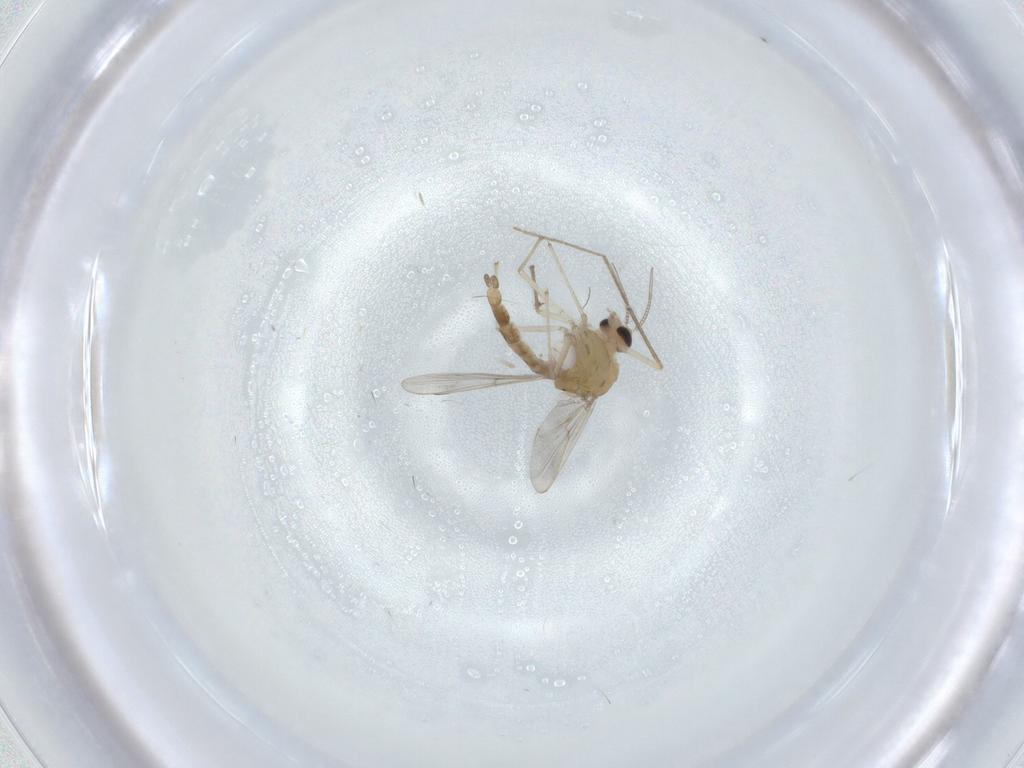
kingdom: Animalia
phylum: Arthropoda
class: Insecta
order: Diptera
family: Chironomidae
